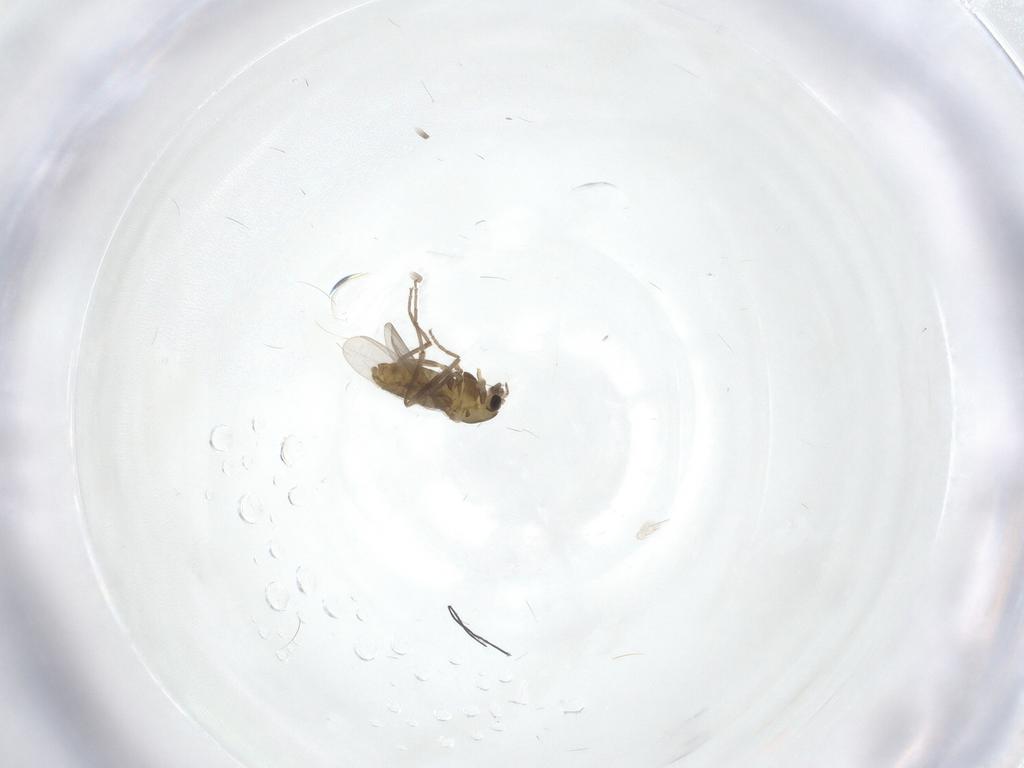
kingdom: Animalia
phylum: Arthropoda
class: Insecta
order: Diptera
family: Chironomidae
